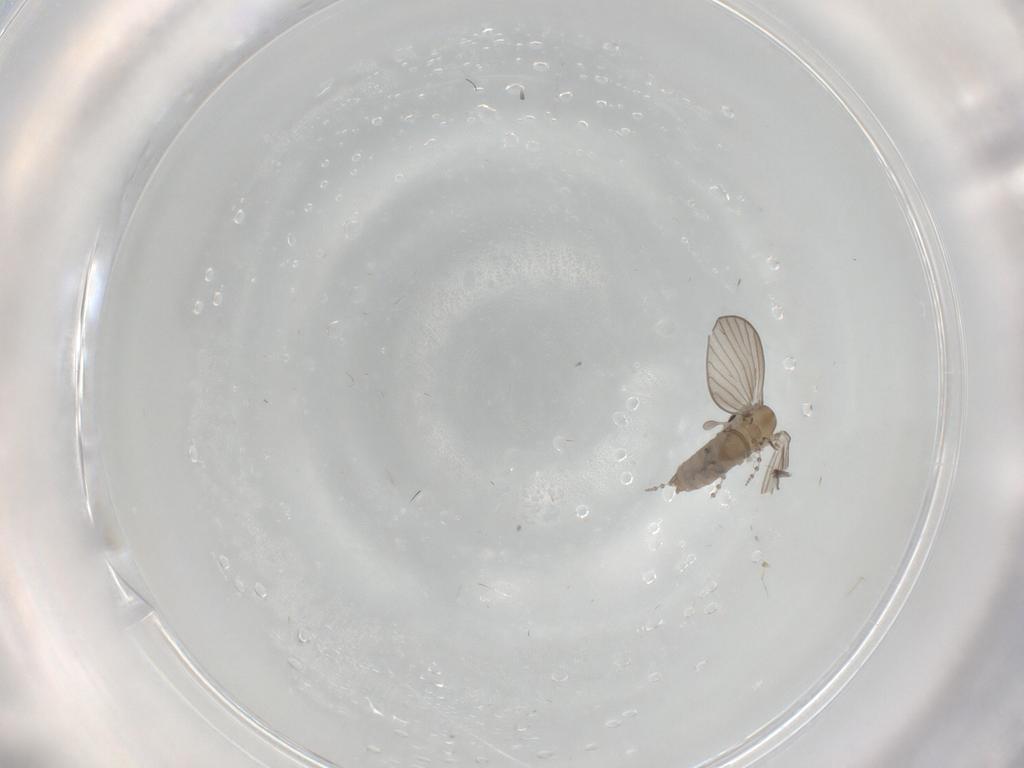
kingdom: Animalia
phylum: Arthropoda
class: Insecta
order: Diptera
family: Psychodidae
